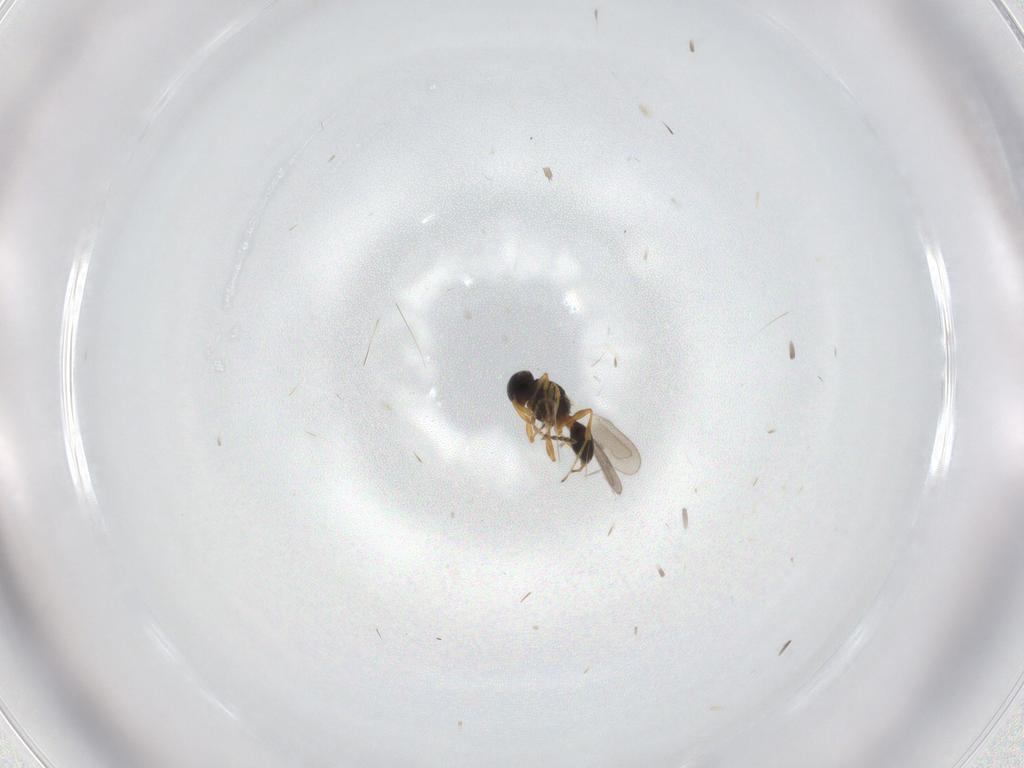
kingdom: Animalia
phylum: Arthropoda
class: Insecta
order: Hymenoptera
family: Platygastridae
